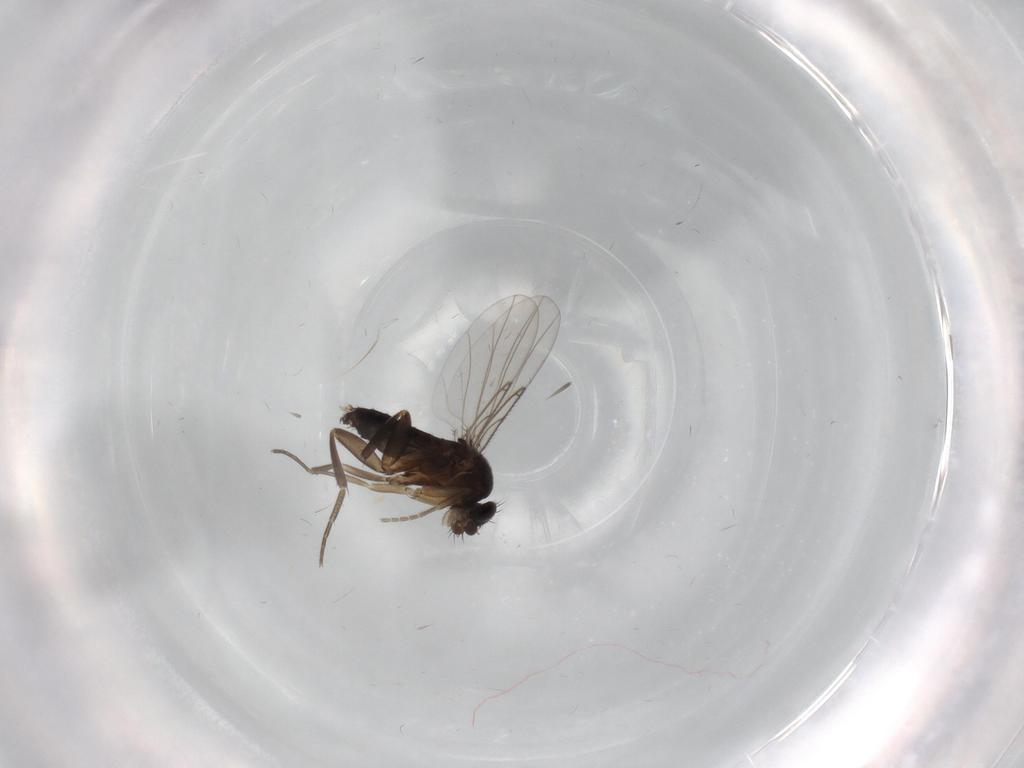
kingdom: Animalia
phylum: Arthropoda
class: Insecta
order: Diptera
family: Phoridae
